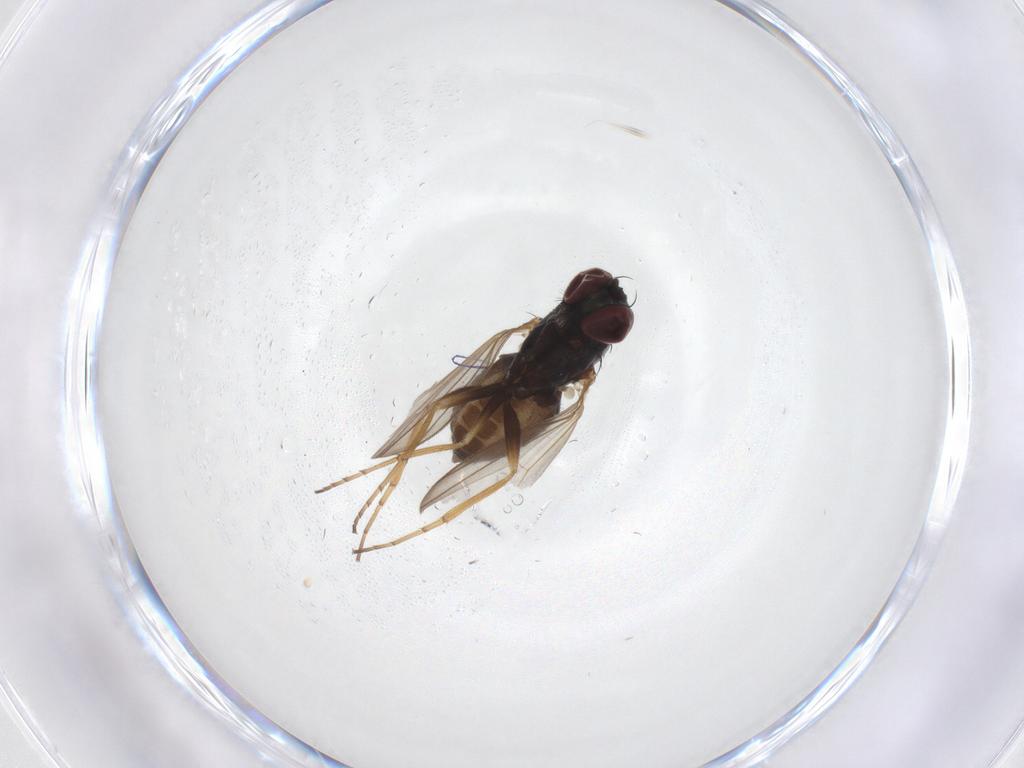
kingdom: Animalia
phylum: Arthropoda
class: Insecta
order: Diptera
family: Dolichopodidae
